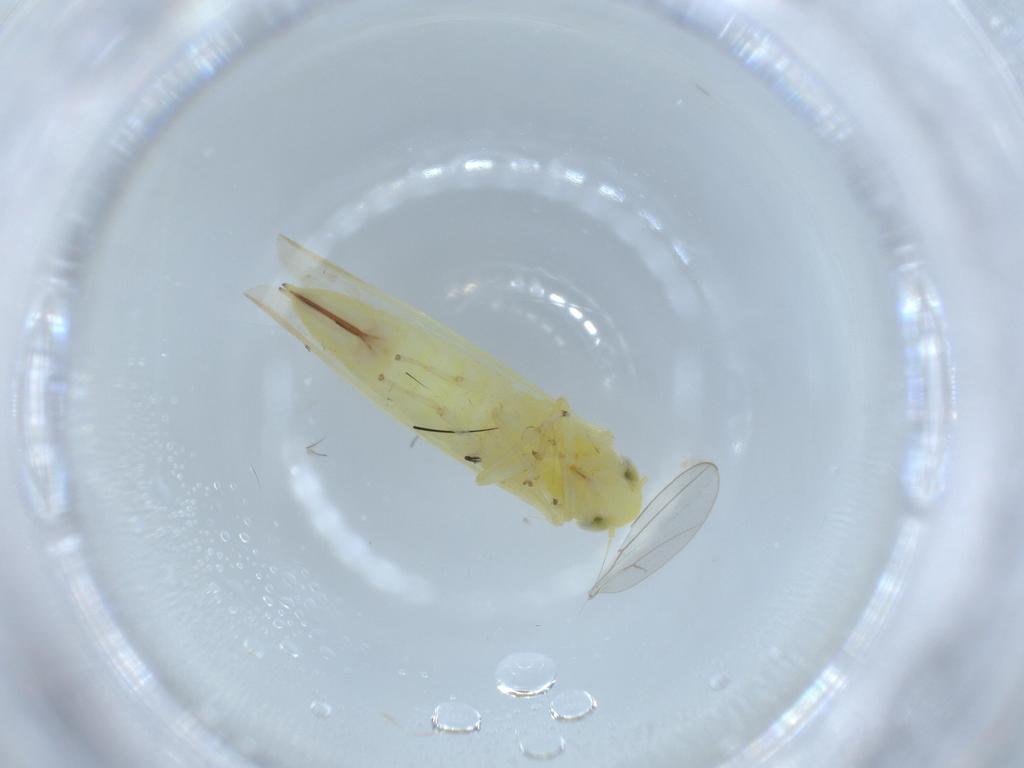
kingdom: Animalia
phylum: Arthropoda
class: Insecta
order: Hemiptera
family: Cicadellidae
